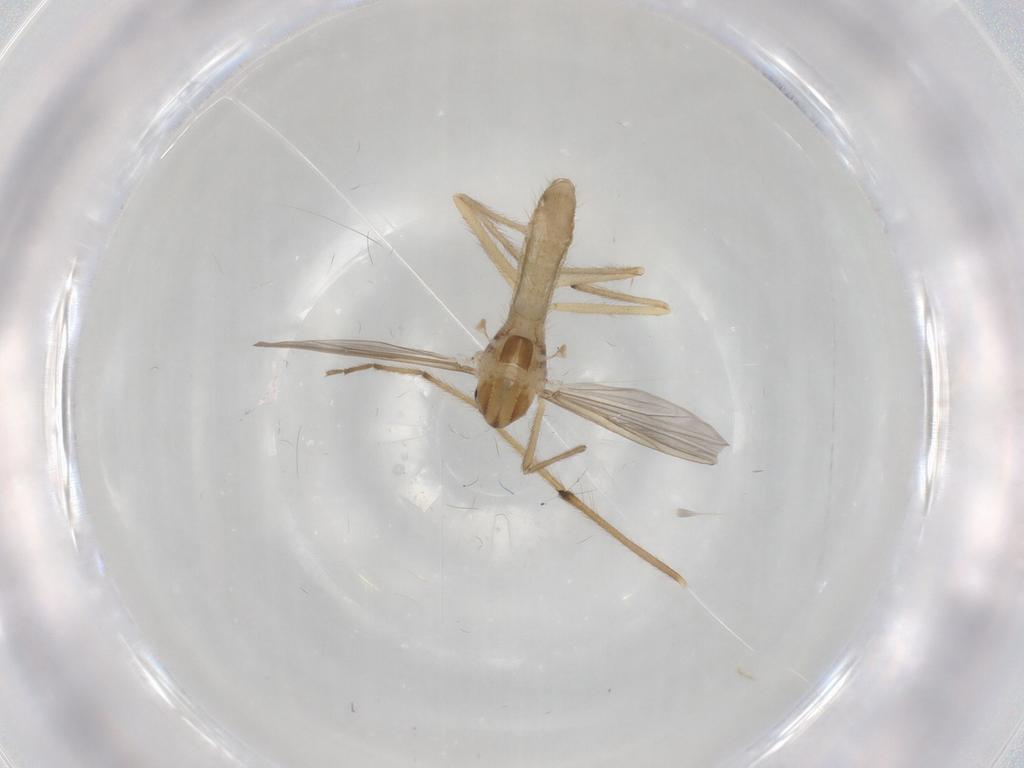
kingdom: Animalia
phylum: Arthropoda
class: Insecta
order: Diptera
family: Chironomidae
